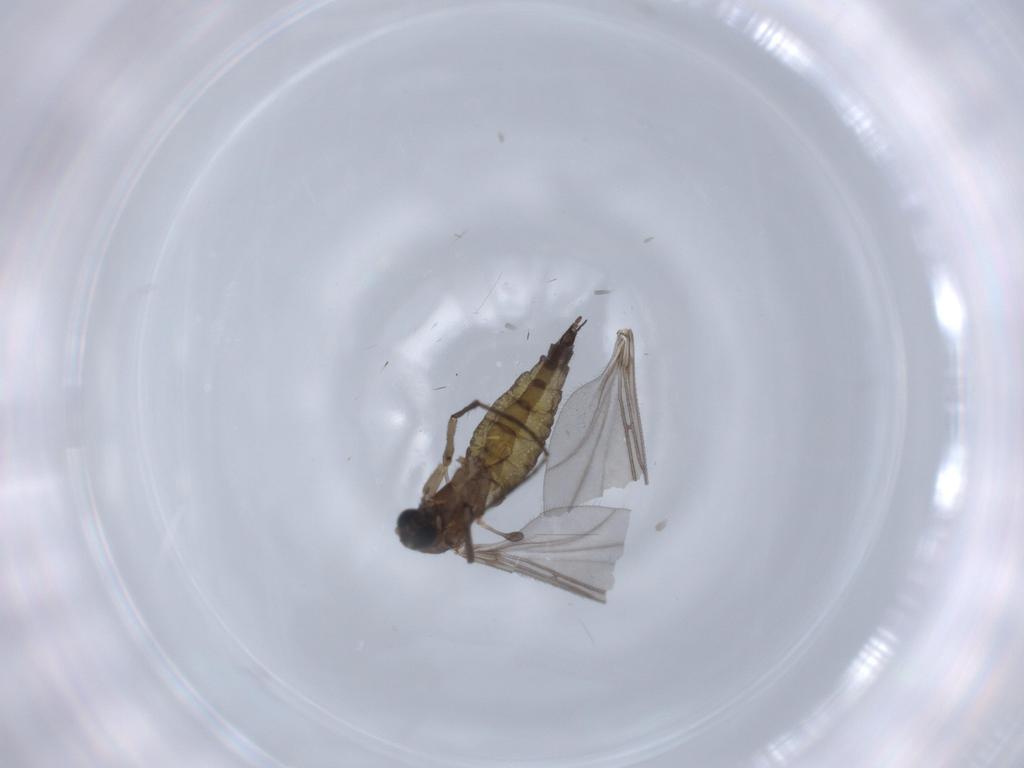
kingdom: Animalia
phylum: Arthropoda
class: Insecta
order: Diptera
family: Sciaridae
